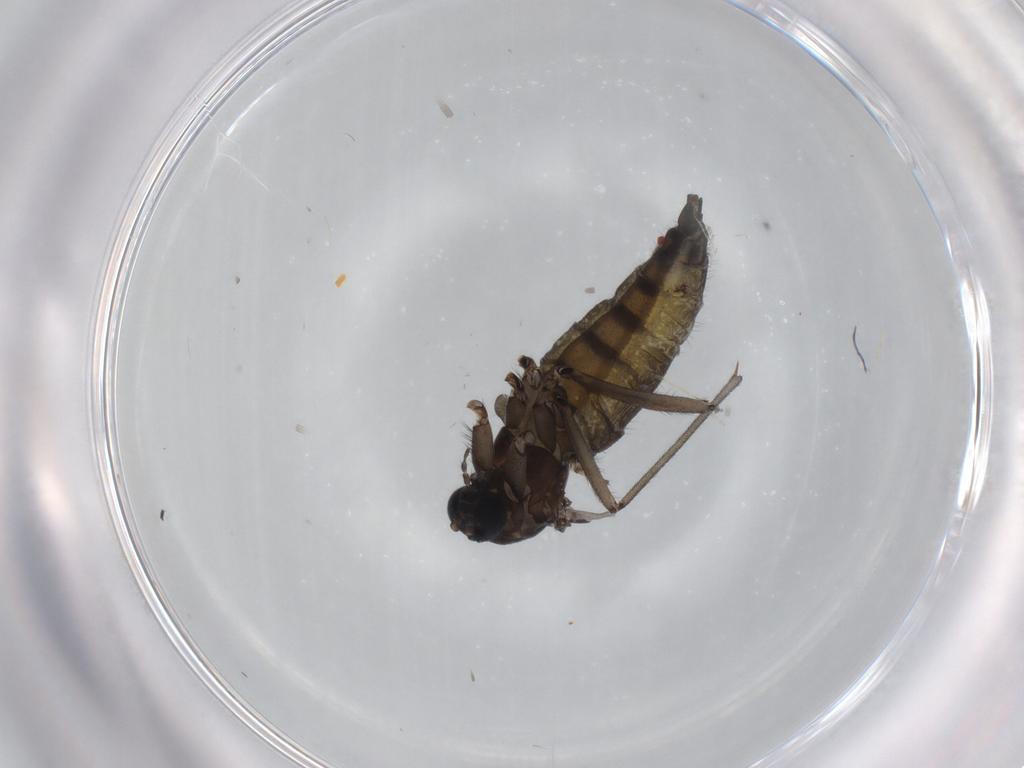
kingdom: Animalia
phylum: Arthropoda
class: Insecta
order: Diptera
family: Sciaridae
